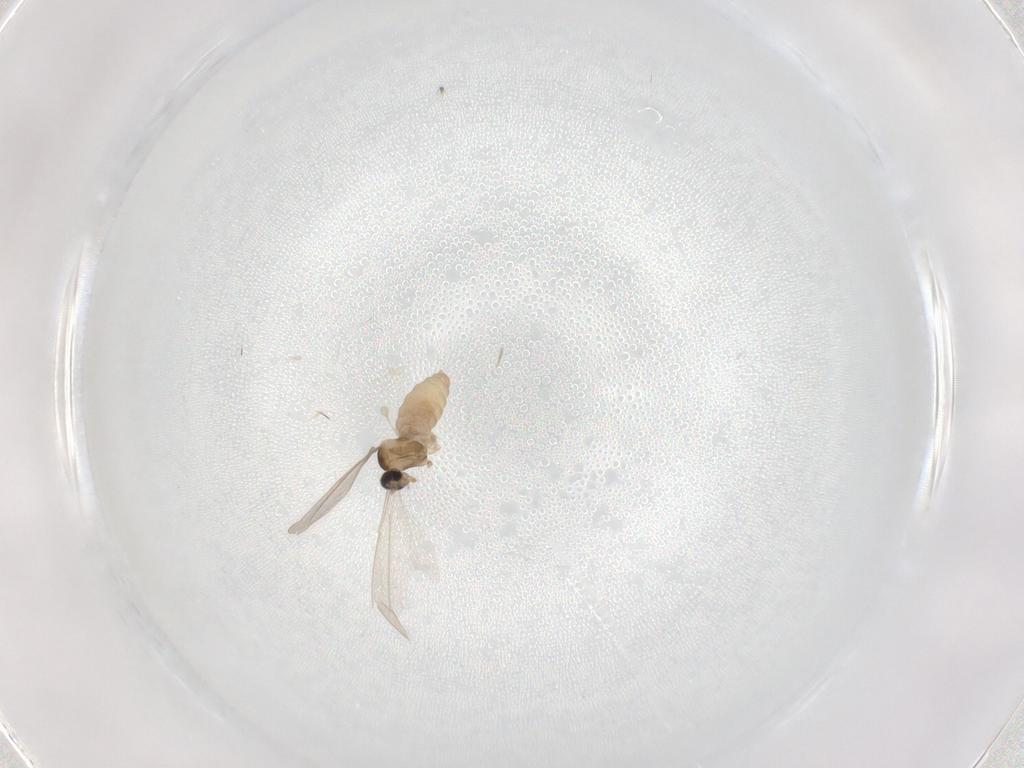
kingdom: Animalia
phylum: Arthropoda
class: Insecta
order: Diptera
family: Cecidomyiidae
